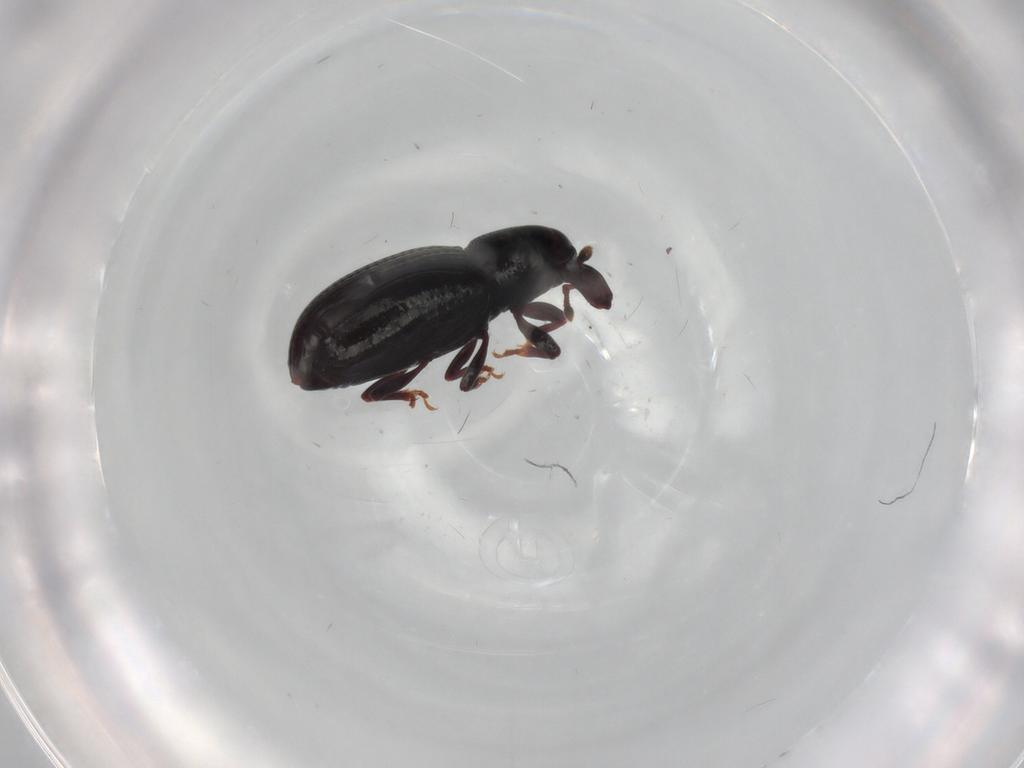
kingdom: Animalia
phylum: Arthropoda
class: Insecta
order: Coleoptera
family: Curculionidae
